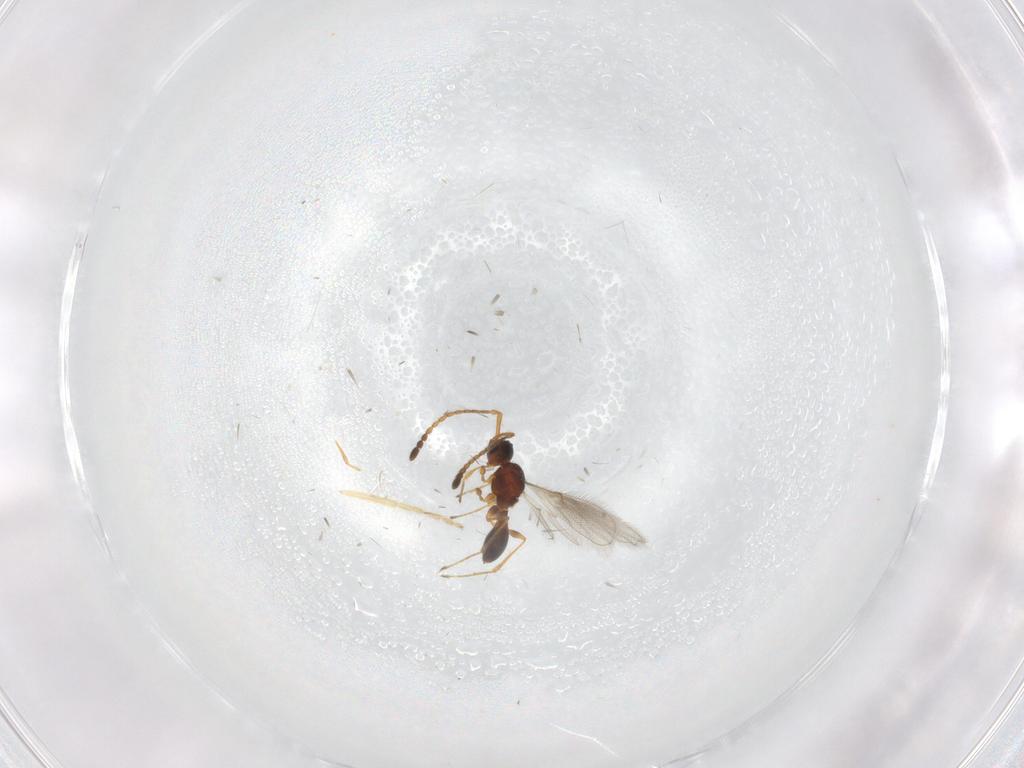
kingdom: Animalia
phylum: Arthropoda
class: Insecta
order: Hymenoptera
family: Diapriidae
